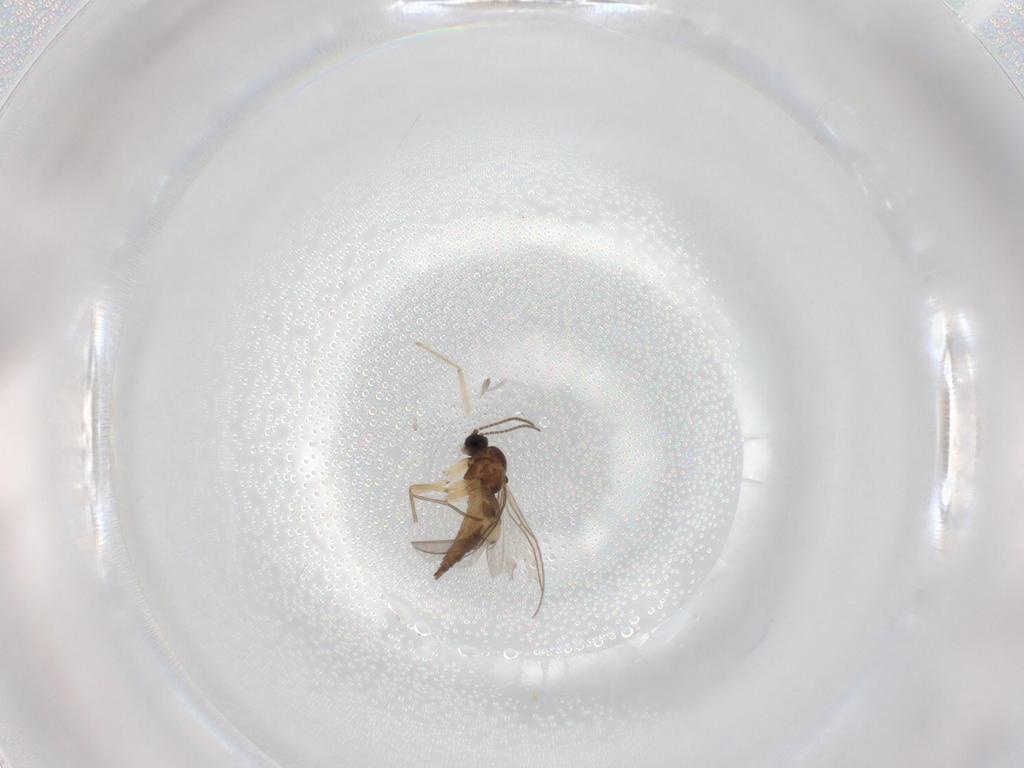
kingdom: Animalia
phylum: Arthropoda
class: Insecta
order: Diptera
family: Sciaridae
